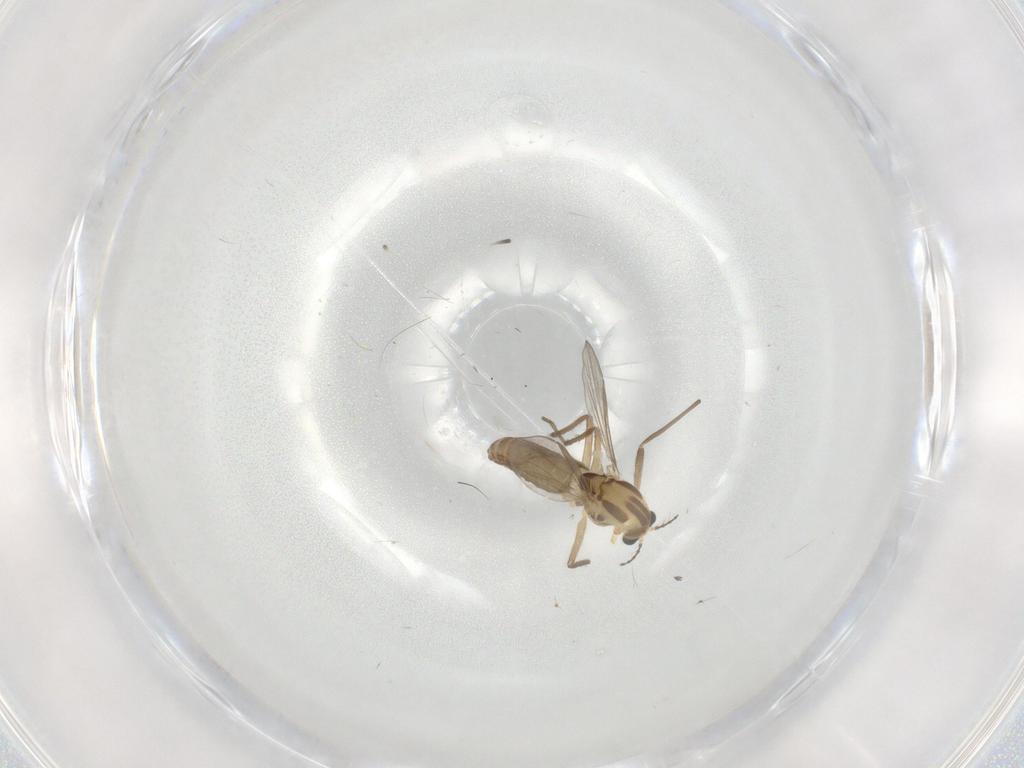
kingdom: Animalia
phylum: Arthropoda
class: Insecta
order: Diptera
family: Chironomidae
